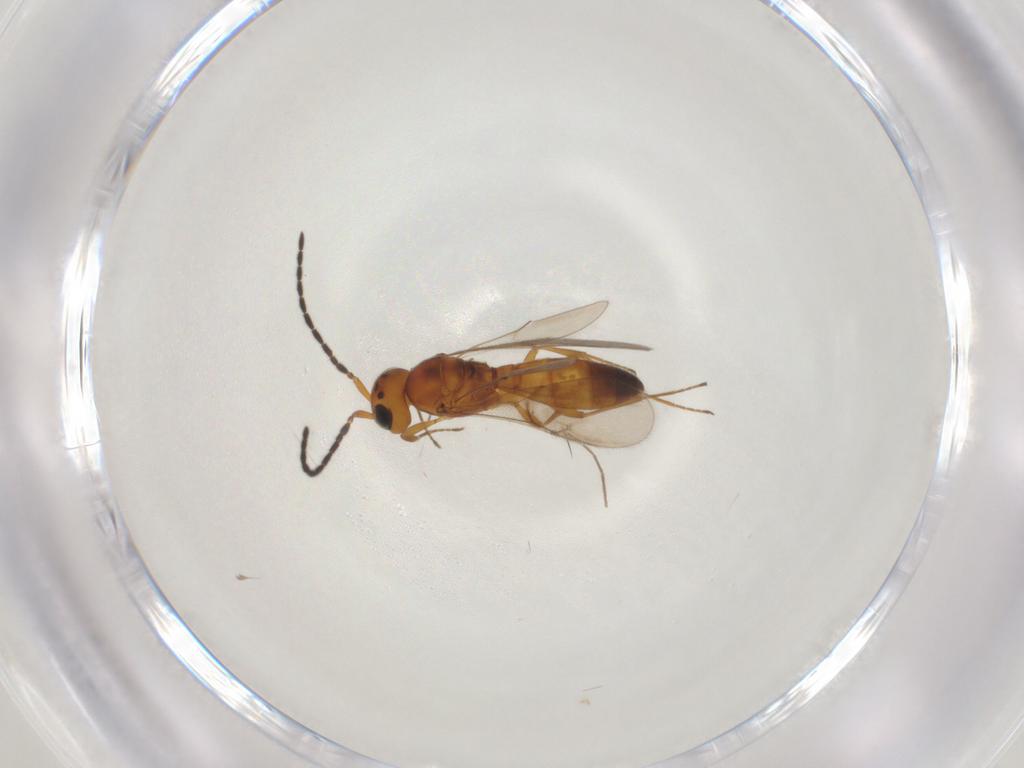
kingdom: Animalia
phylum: Arthropoda
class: Insecta
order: Hymenoptera
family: Scelionidae
